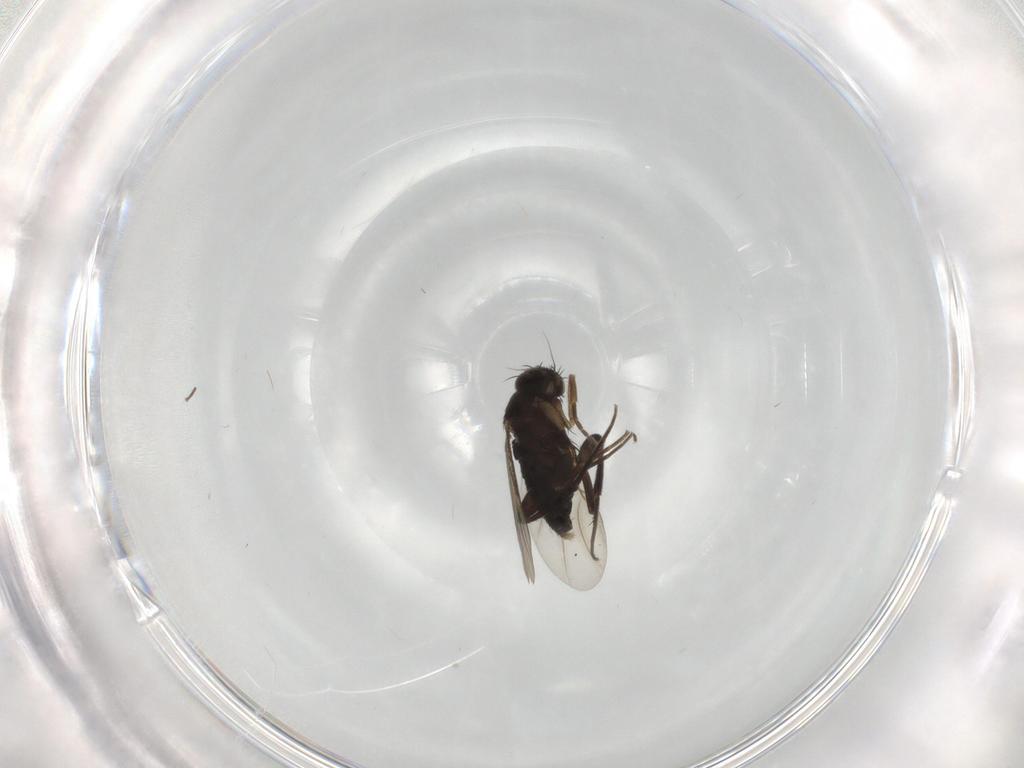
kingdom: Animalia
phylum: Arthropoda
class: Insecta
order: Diptera
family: Phoridae
